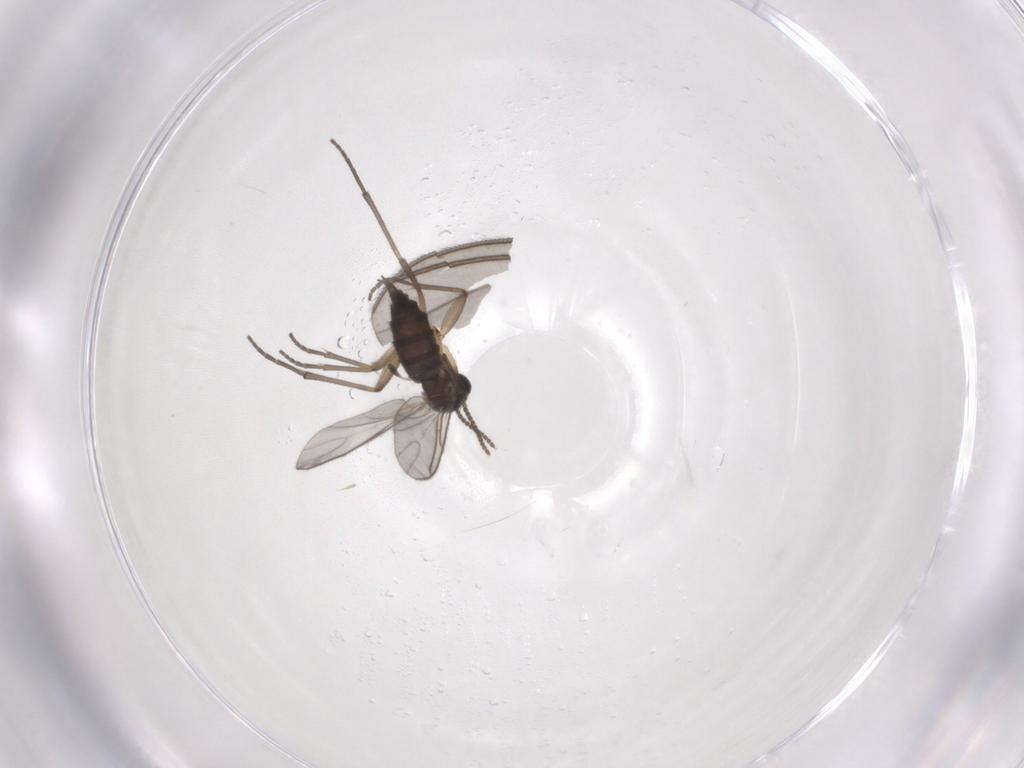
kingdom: Animalia
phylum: Arthropoda
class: Insecta
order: Diptera
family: Sciaridae
